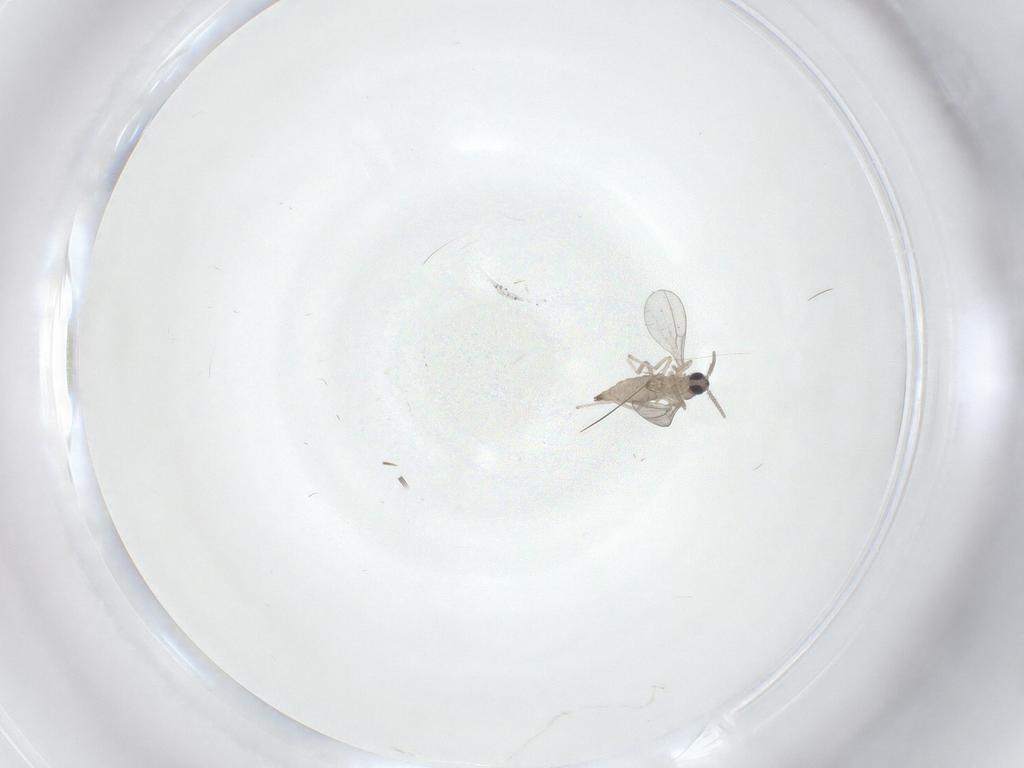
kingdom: Animalia
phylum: Arthropoda
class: Insecta
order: Diptera
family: Cecidomyiidae
